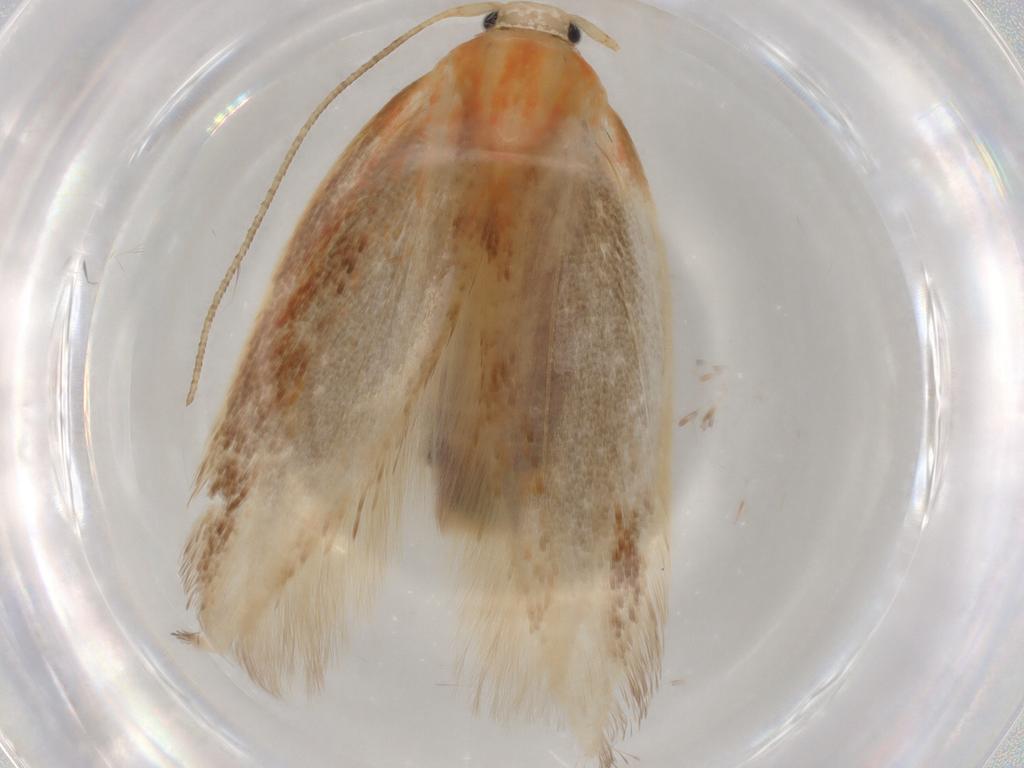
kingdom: Animalia
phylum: Arthropoda
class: Insecta
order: Lepidoptera
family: Geometridae
